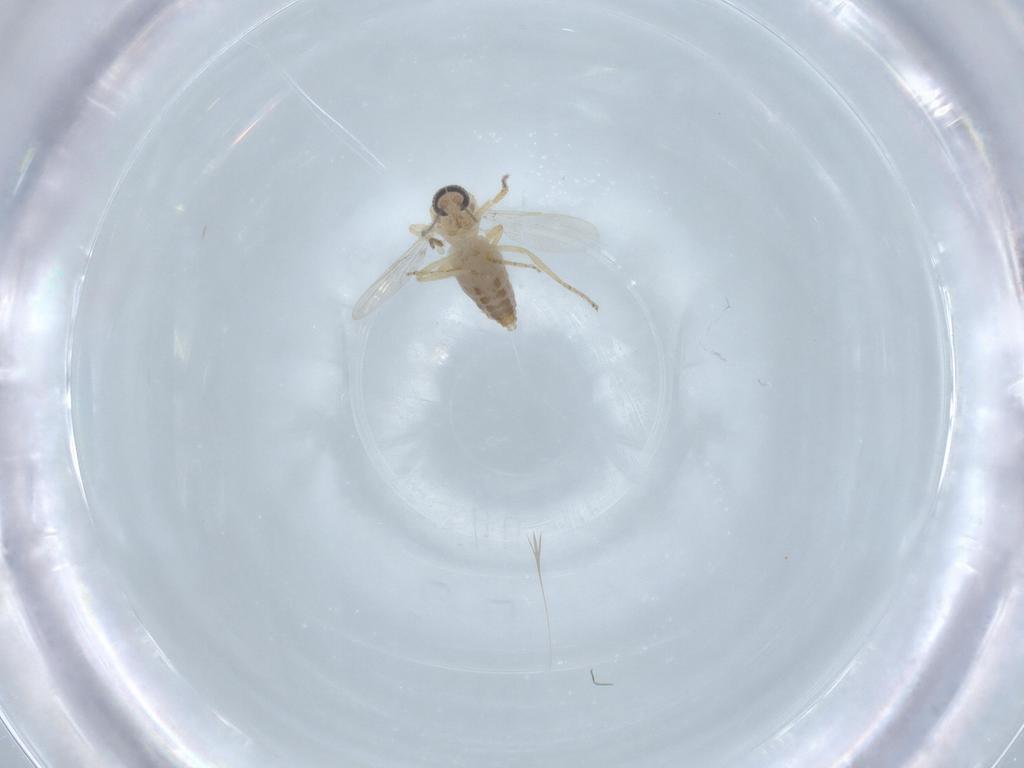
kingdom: Animalia
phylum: Arthropoda
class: Insecta
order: Diptera
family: Ceratopogonidae
